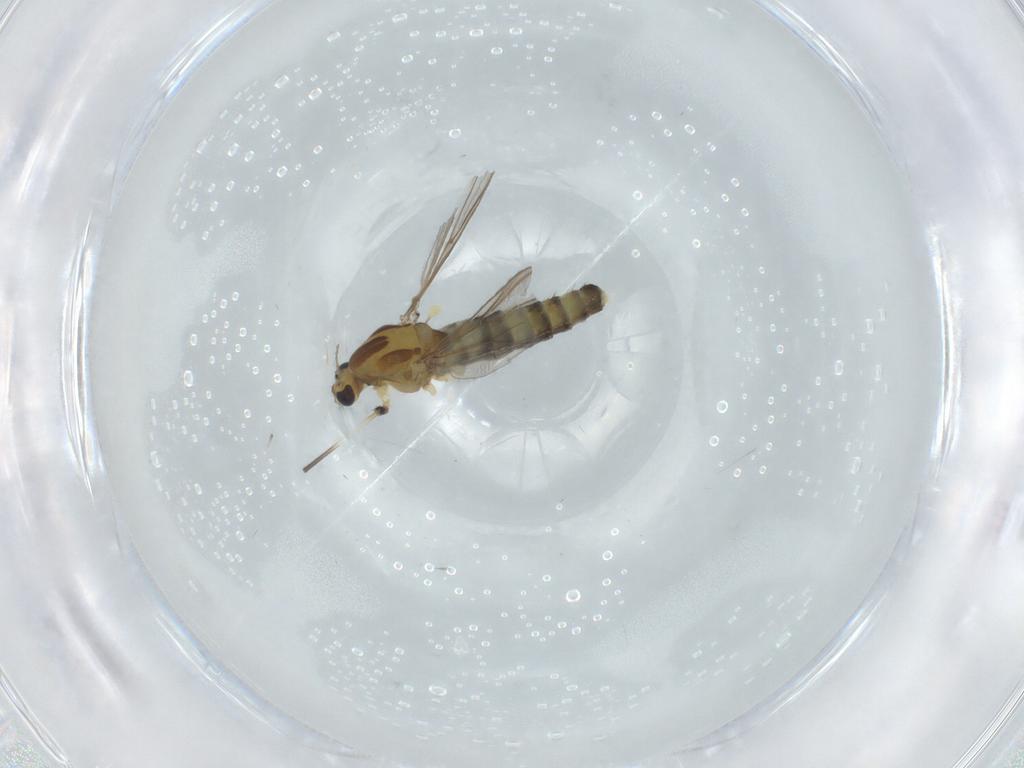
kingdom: Animalia
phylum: Arthropoda
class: Insecta
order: Diptera
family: Chironomidae
